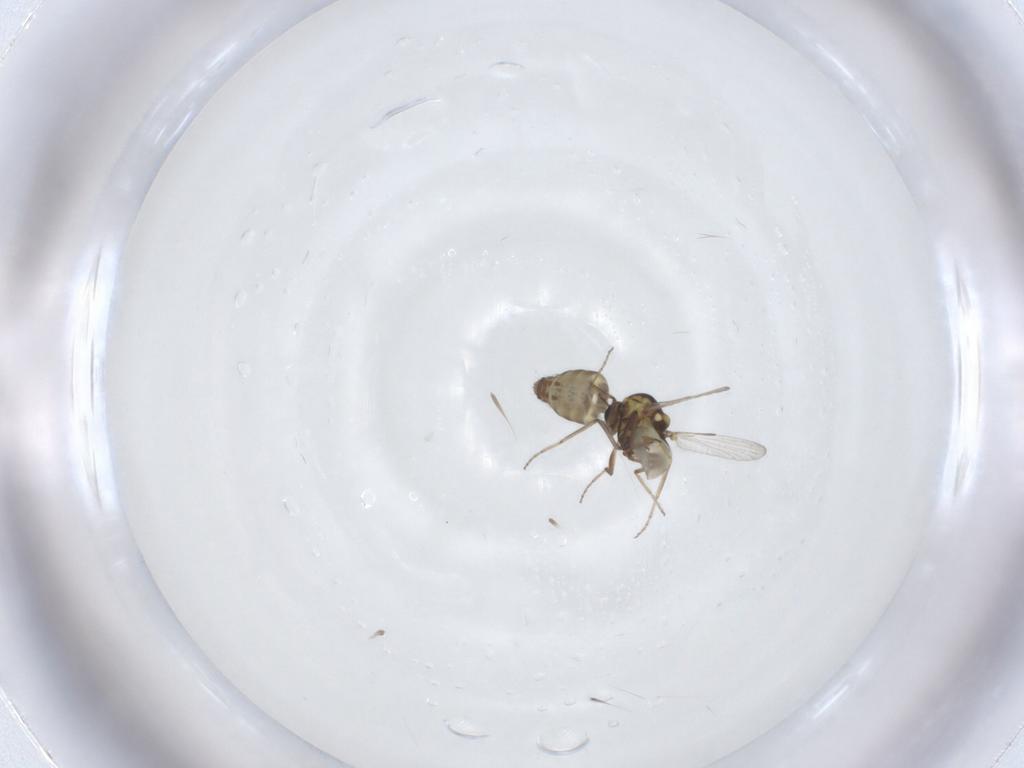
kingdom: Animalia
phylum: Arthropoda
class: Insecta
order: Diptera
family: Ceratopogonidae
